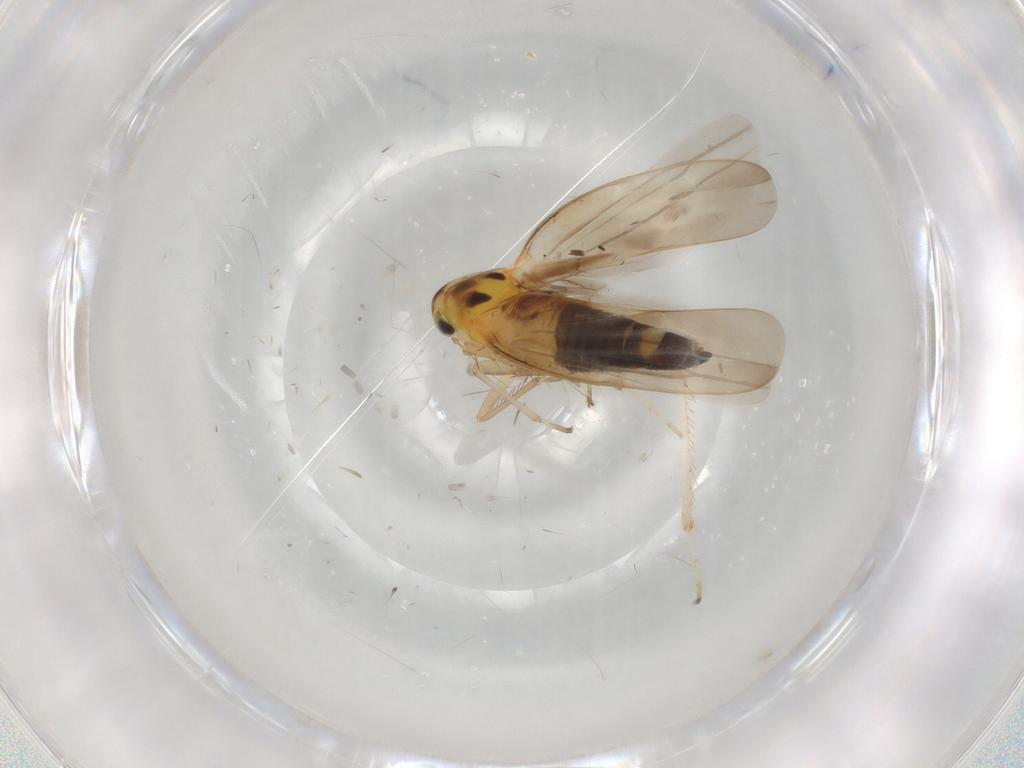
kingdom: Animalia
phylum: Arthropoda
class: Insecta
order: Hemiptera
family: Cicadellidae
